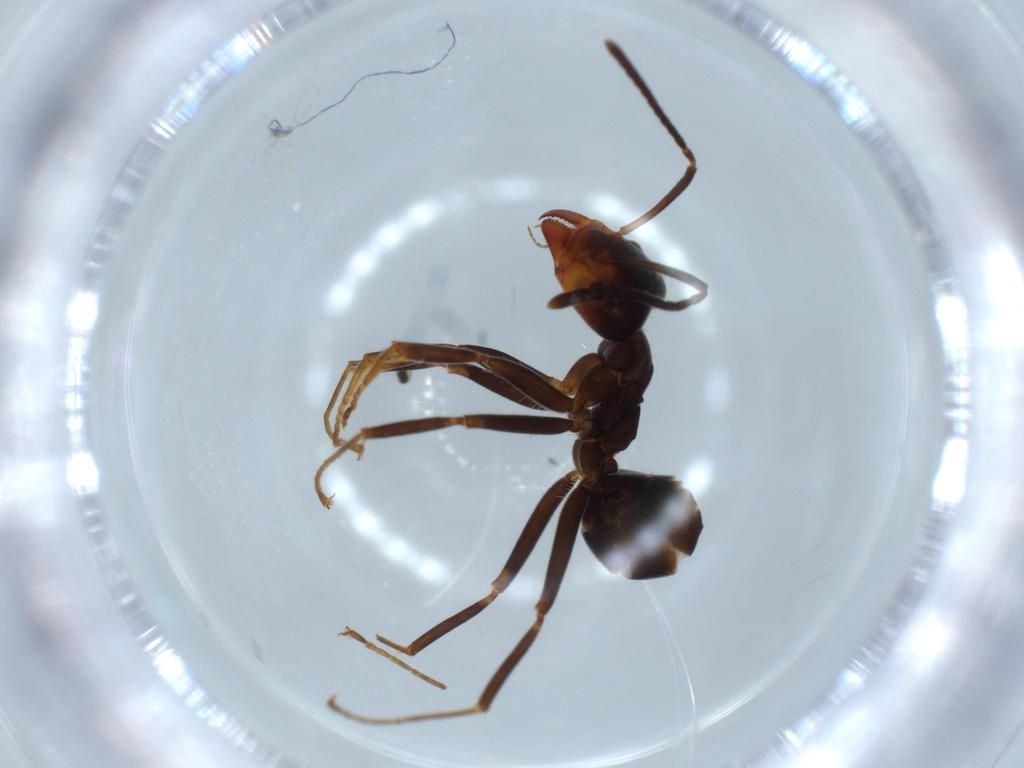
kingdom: Animalia
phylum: Arthropoda
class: Insecta
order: Hymenoptera
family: Formicidae
